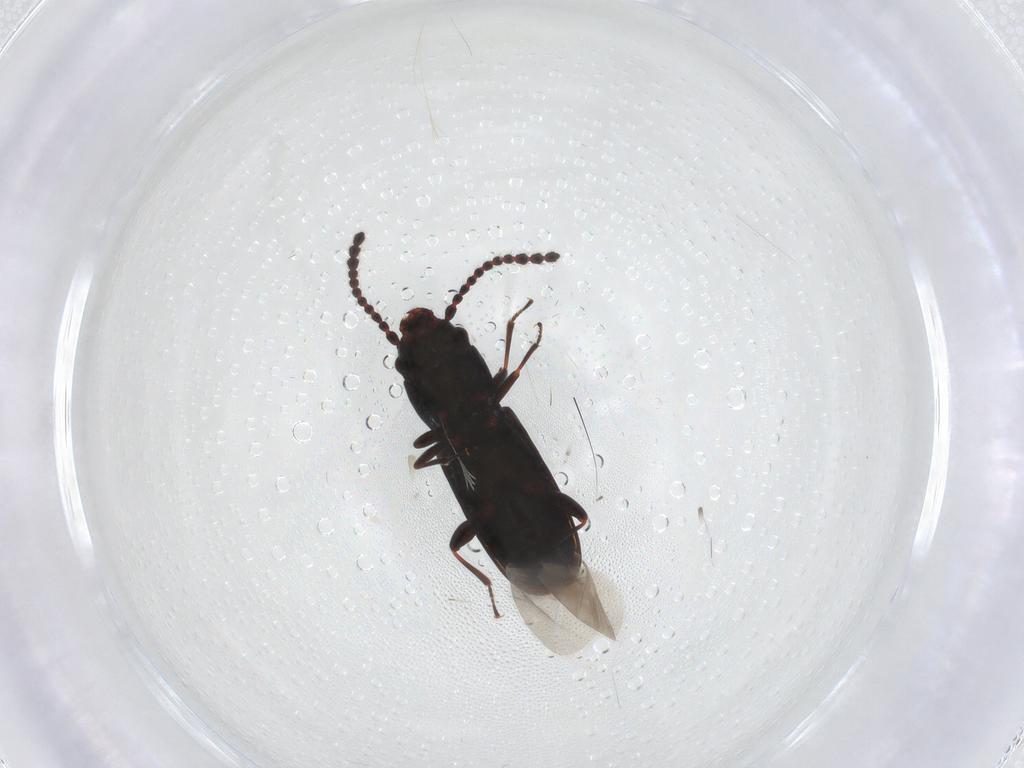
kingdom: Animalia
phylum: Arthropoda
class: Insecta
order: Coleoptera
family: Laemophloeidae
